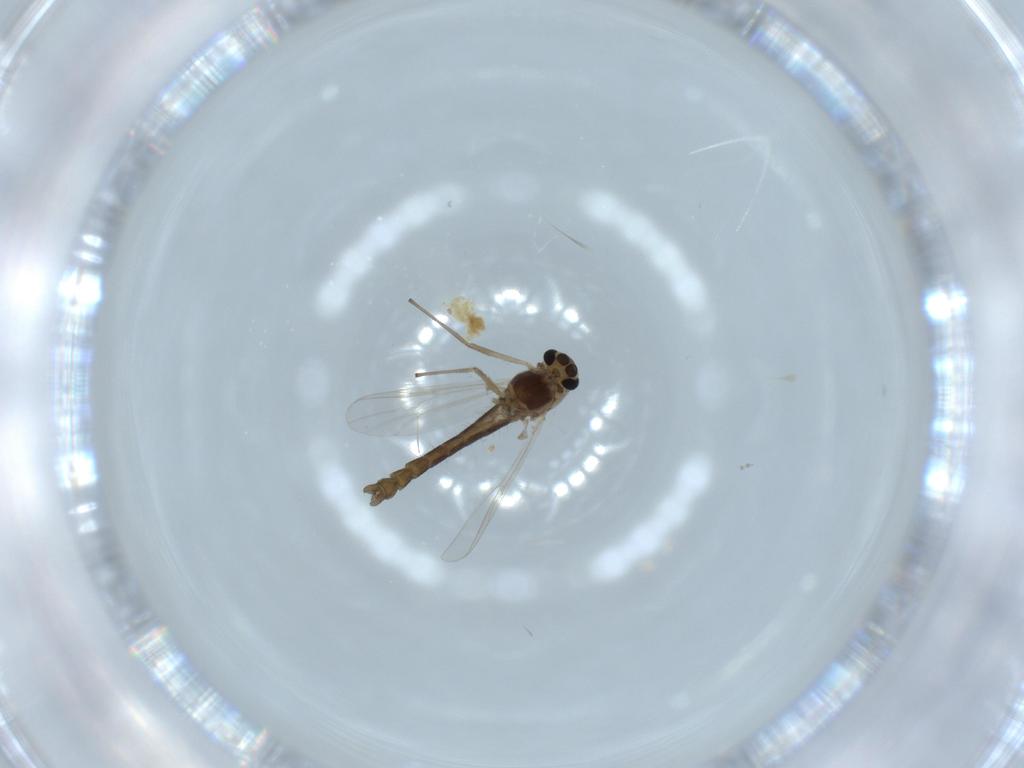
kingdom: Animalia
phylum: Arthropoda
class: Insecta
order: Diptera
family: Chironomidae
